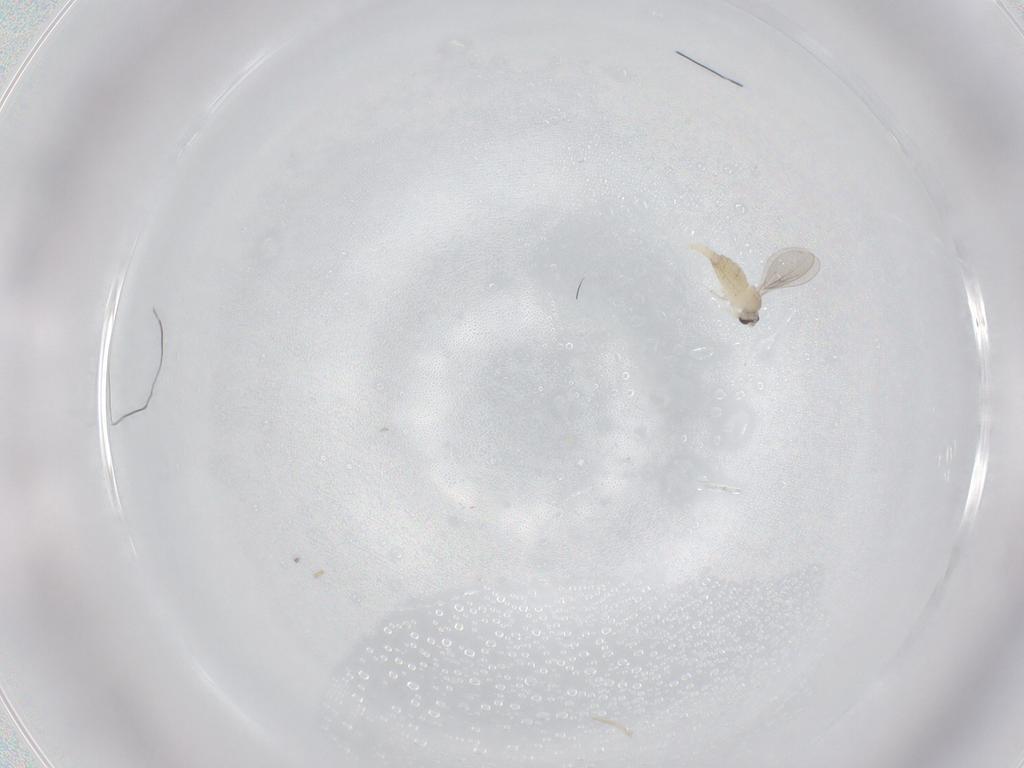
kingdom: Animalia
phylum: Arthropoda
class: Insecta
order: Diptera
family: Cecidomyiidae
